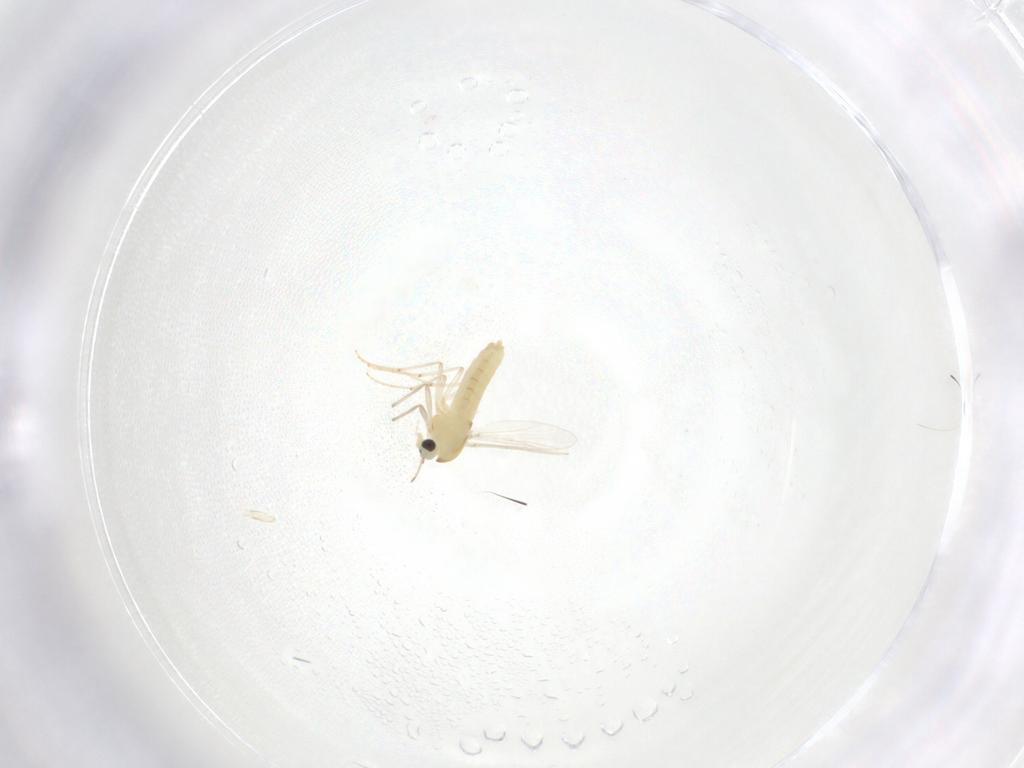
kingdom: Animalia
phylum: Arthropoda
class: Insecta
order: Diptera
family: Chironomidae
